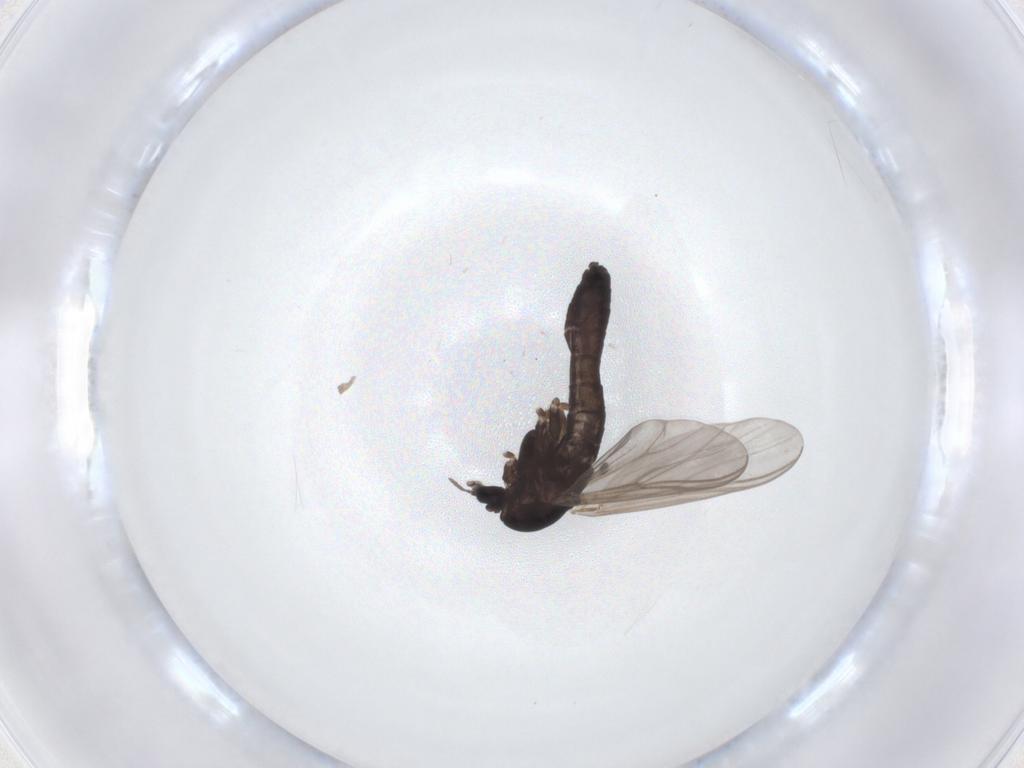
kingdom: Animalia
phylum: Arthropoda
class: Insecta
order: Diptera
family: Chironomidae
